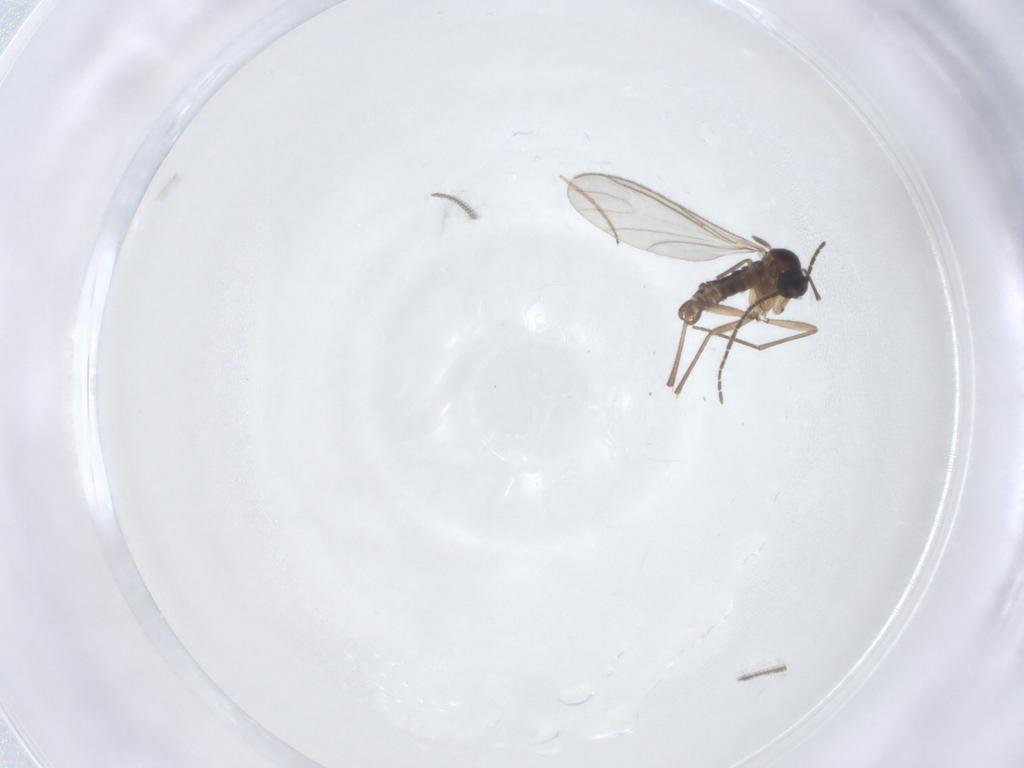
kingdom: Animalia
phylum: Arthropoda
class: Insecta
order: Diptera
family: Sciaridae
